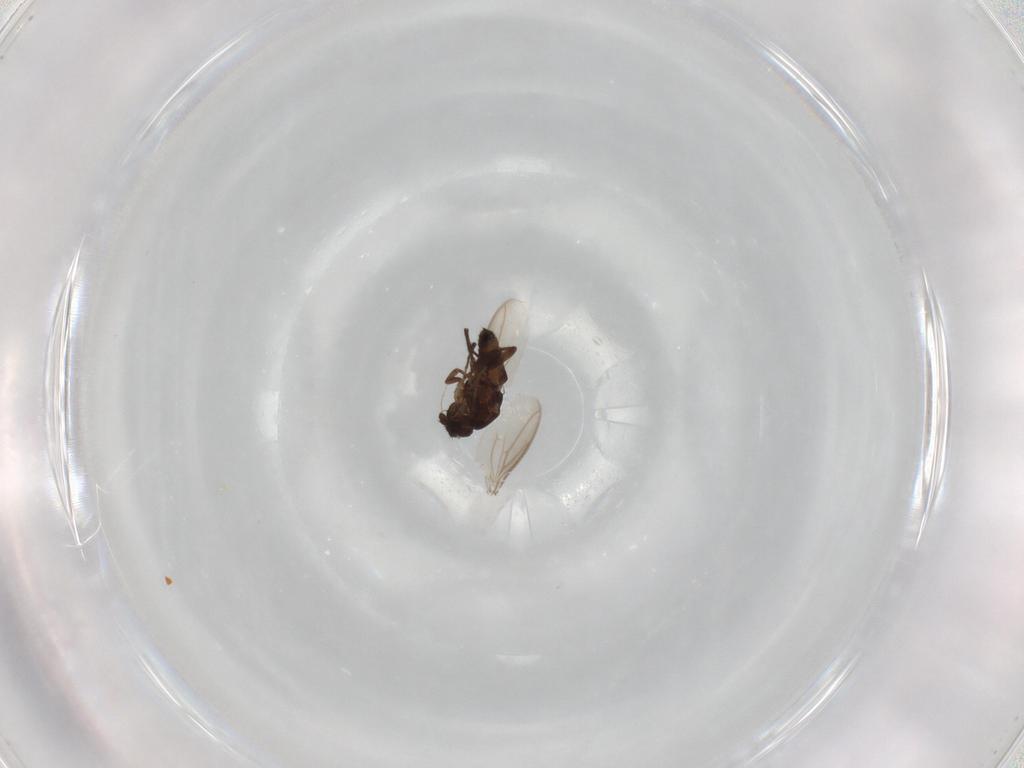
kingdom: Animalia
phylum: Arthropoda
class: Insecta
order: Diptera
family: Sphaeroceridae
